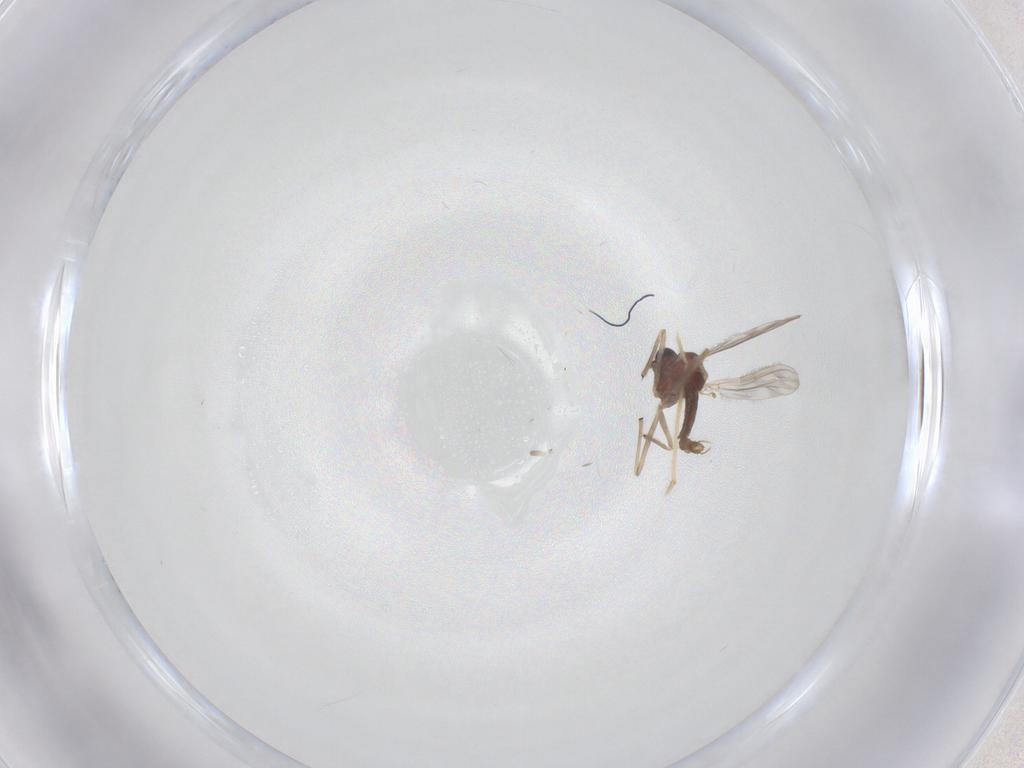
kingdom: Animalia
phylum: Arthropoda
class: Insecta
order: Diptera
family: Chironomidae
